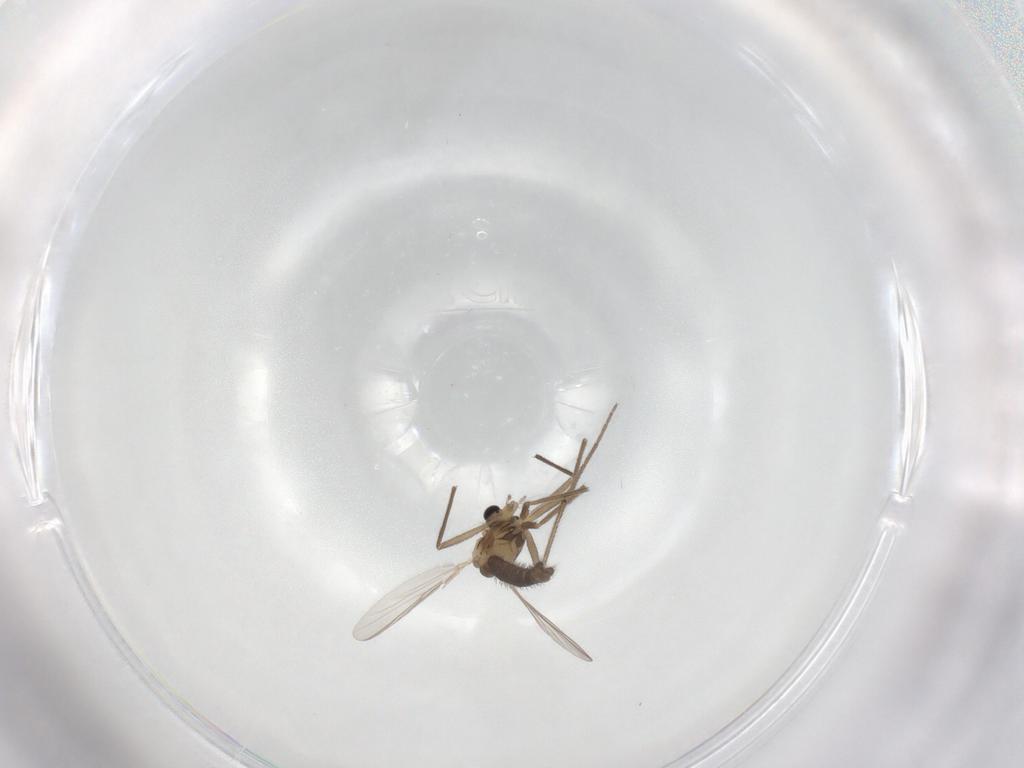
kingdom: Animalia
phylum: Arthropoda
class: Insecta
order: Diptera
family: Chironomidae
